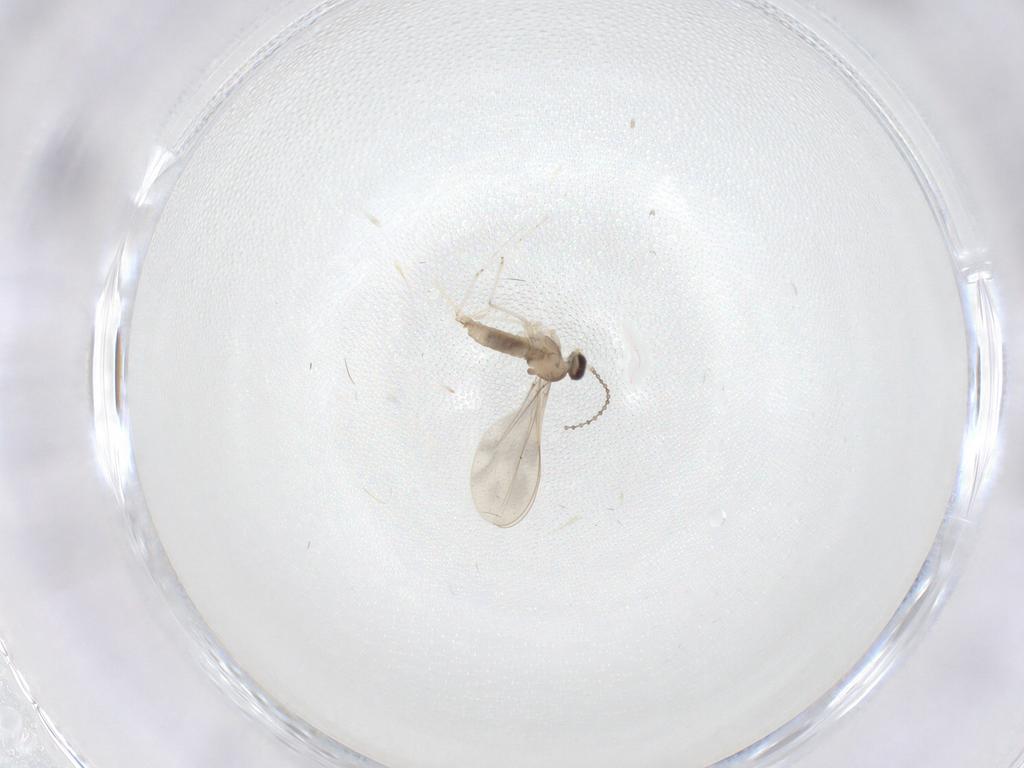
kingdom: Animalia
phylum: Arthropoda
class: Insecta
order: Diptera
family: Cecidomyiidae
